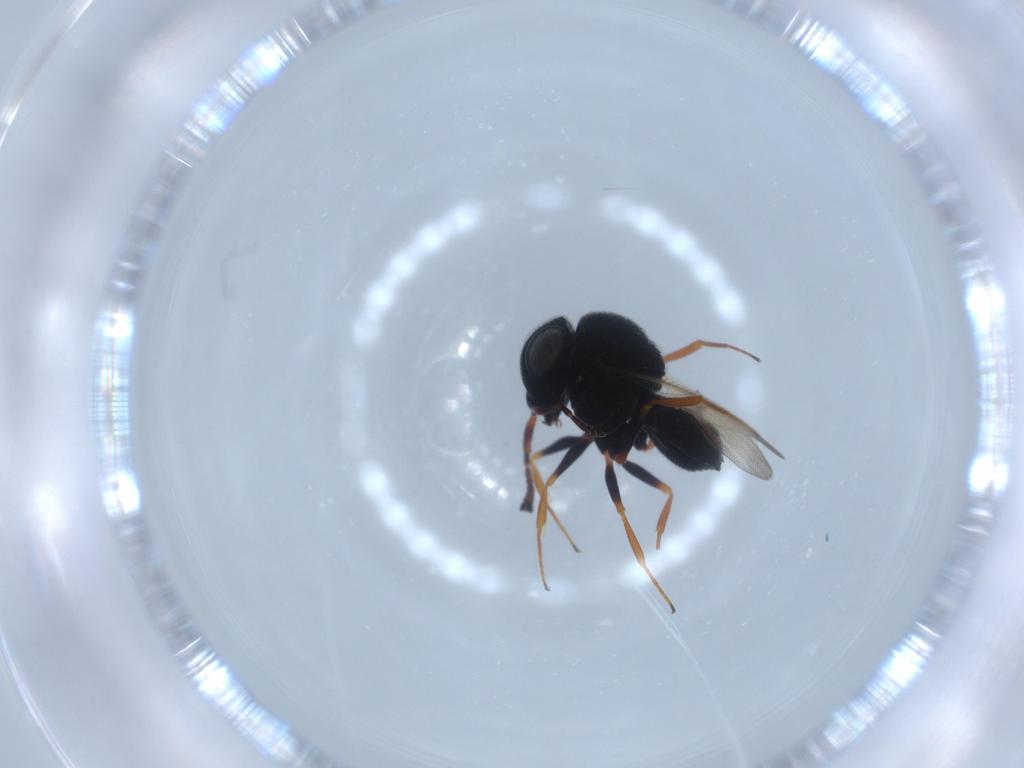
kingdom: Animalia
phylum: Arthropoda
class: Insecta
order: Hymenoptera
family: Scelionidae
